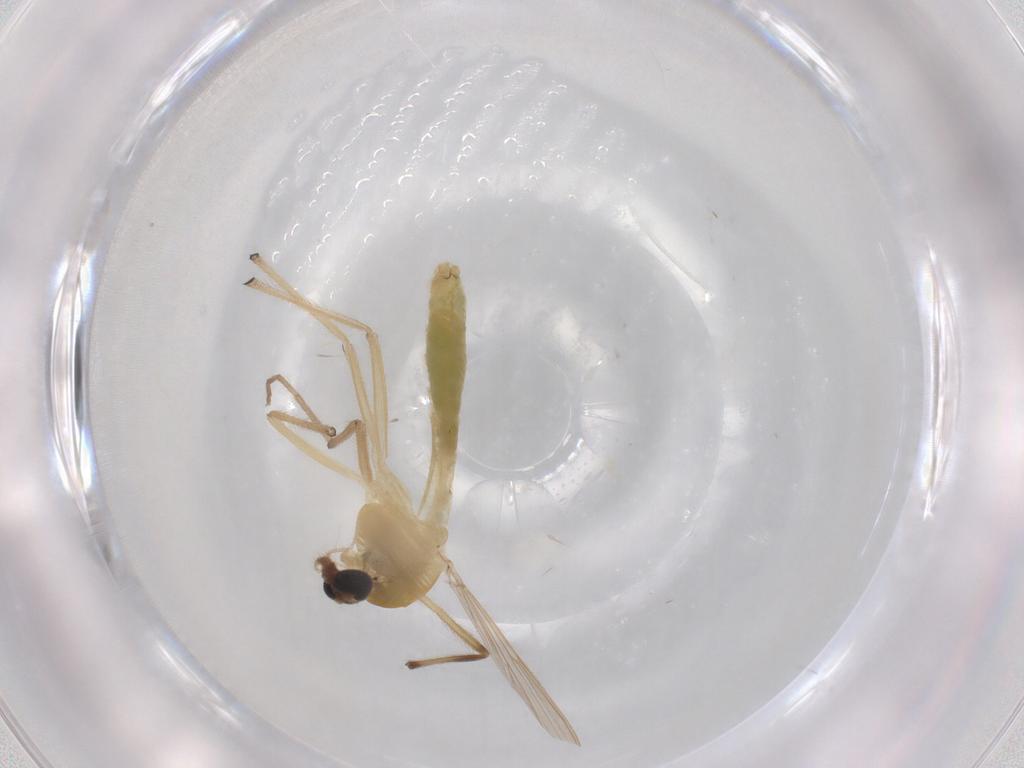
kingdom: Animalia
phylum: Arthropoda
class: Insecta
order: Diptera
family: Chironomidae
